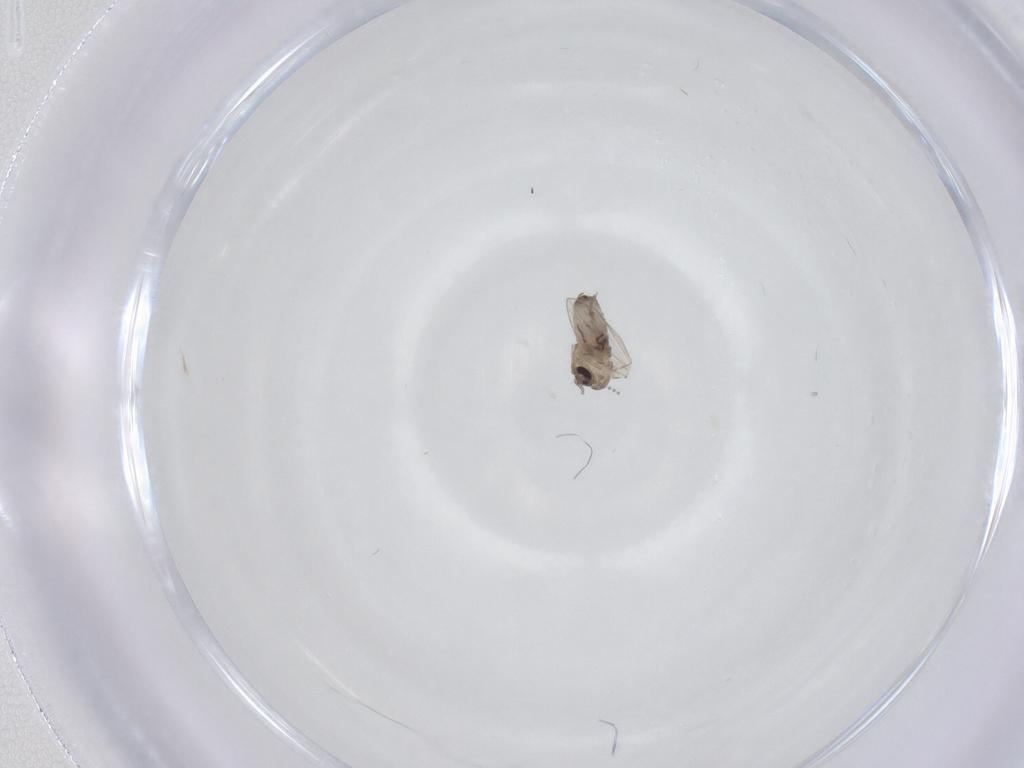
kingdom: Animalia
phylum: Arthropoda
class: Insecta
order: Diptera
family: Psychodidae
